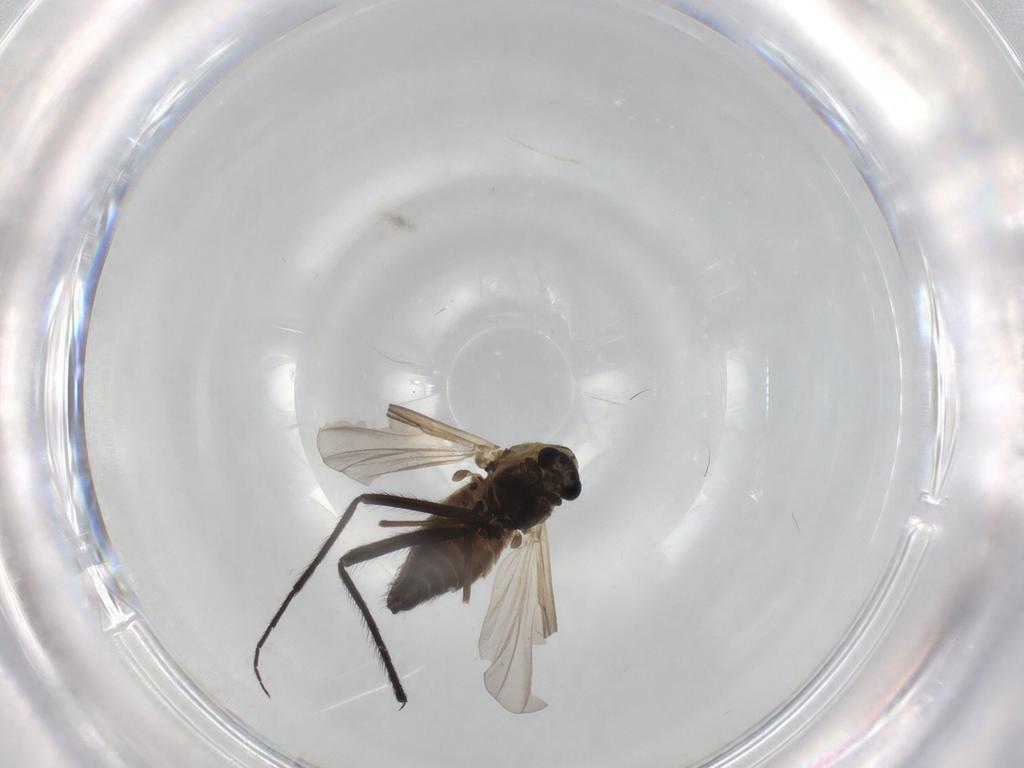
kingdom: Animalia
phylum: Arthropoda
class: Insecta
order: Diptera
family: Chironomidae
